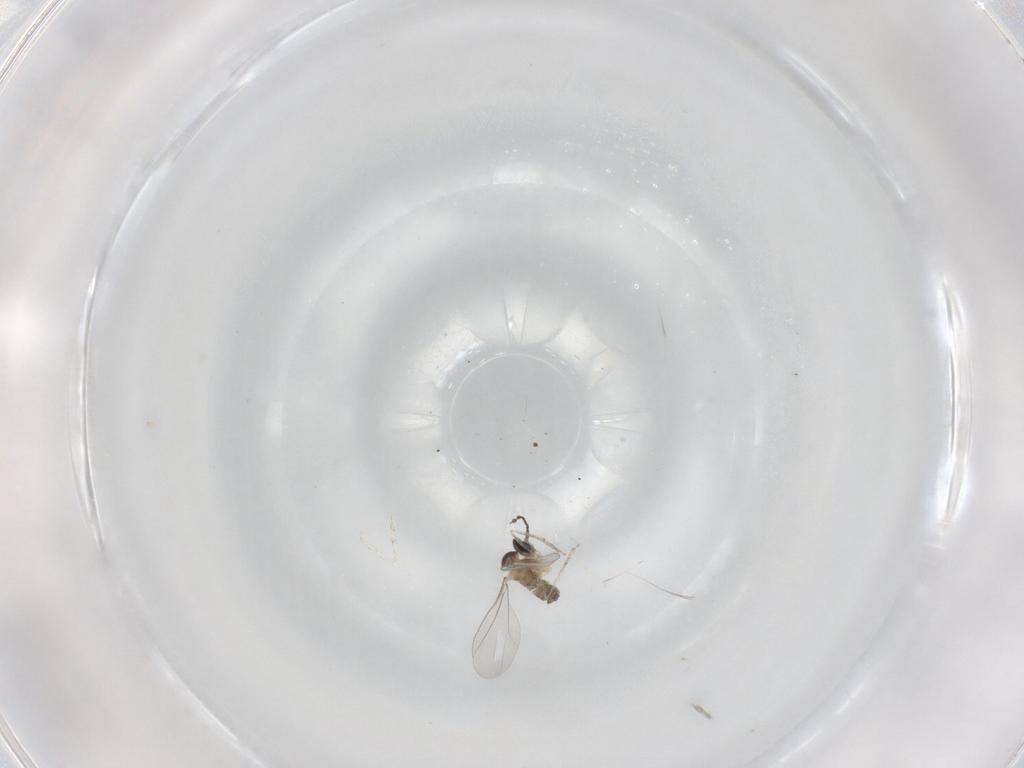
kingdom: Animalia
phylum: Arthropoda
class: Insecta
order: Diptera
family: Cecidomyiidae
